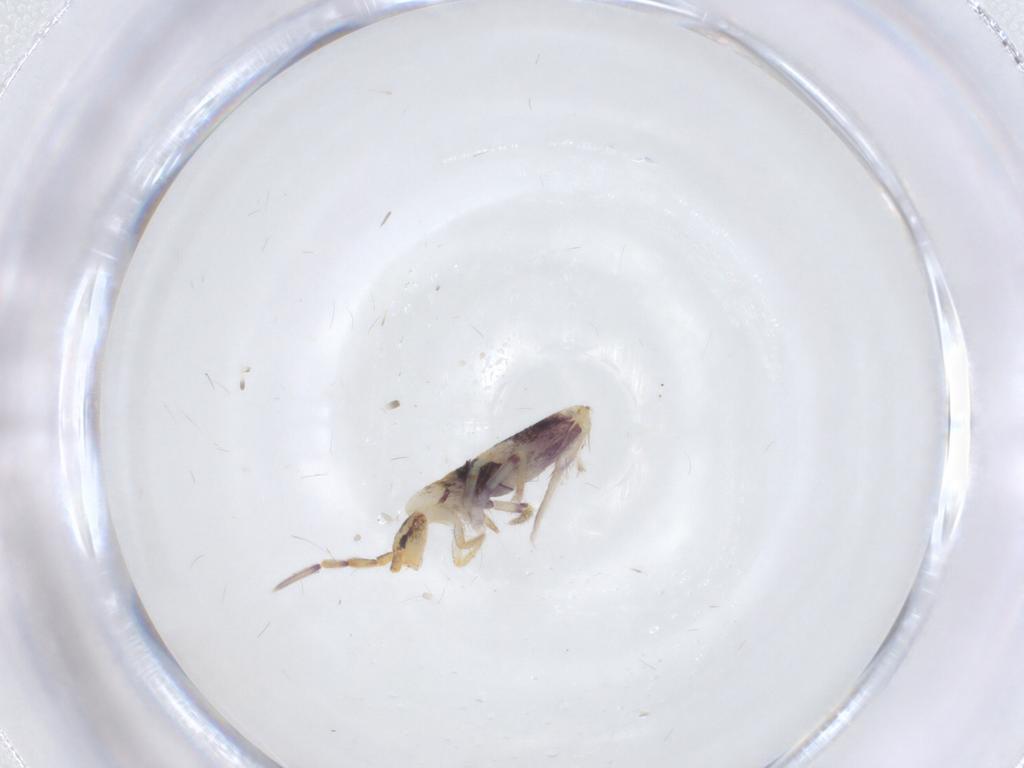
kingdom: Animalia
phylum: Arthropoda
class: Collembola
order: Entomobryomorpha
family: Entomobryidae
